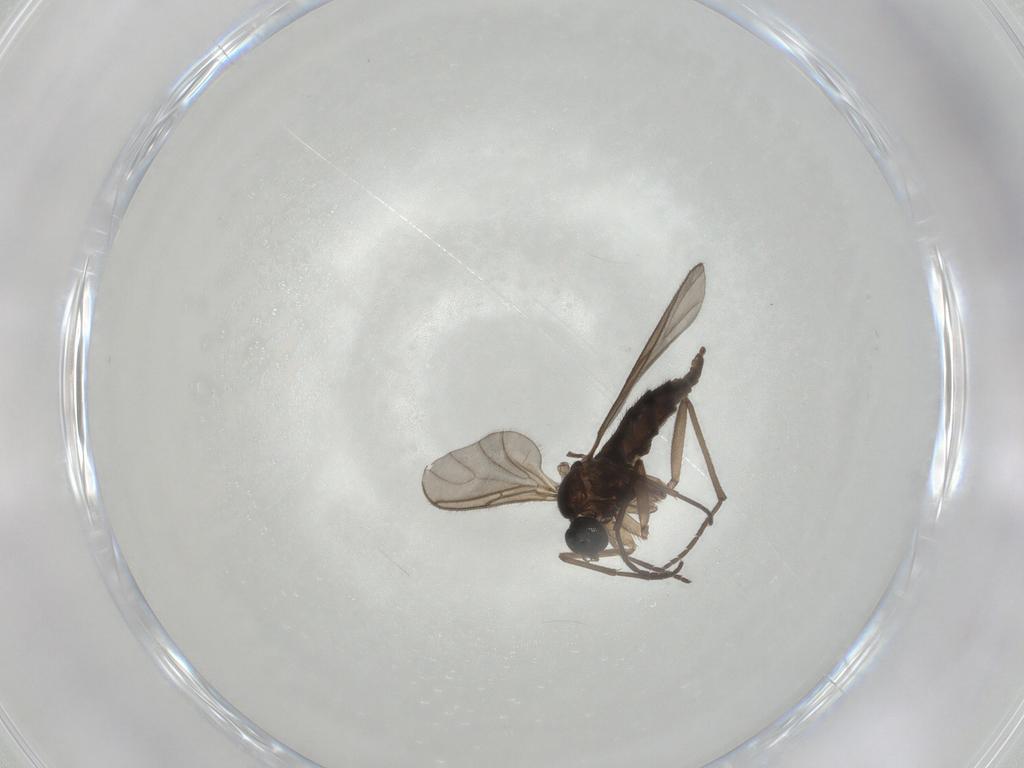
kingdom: Animalia
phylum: Arthropoda
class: Insecta
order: Diptera
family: Sciaridae
